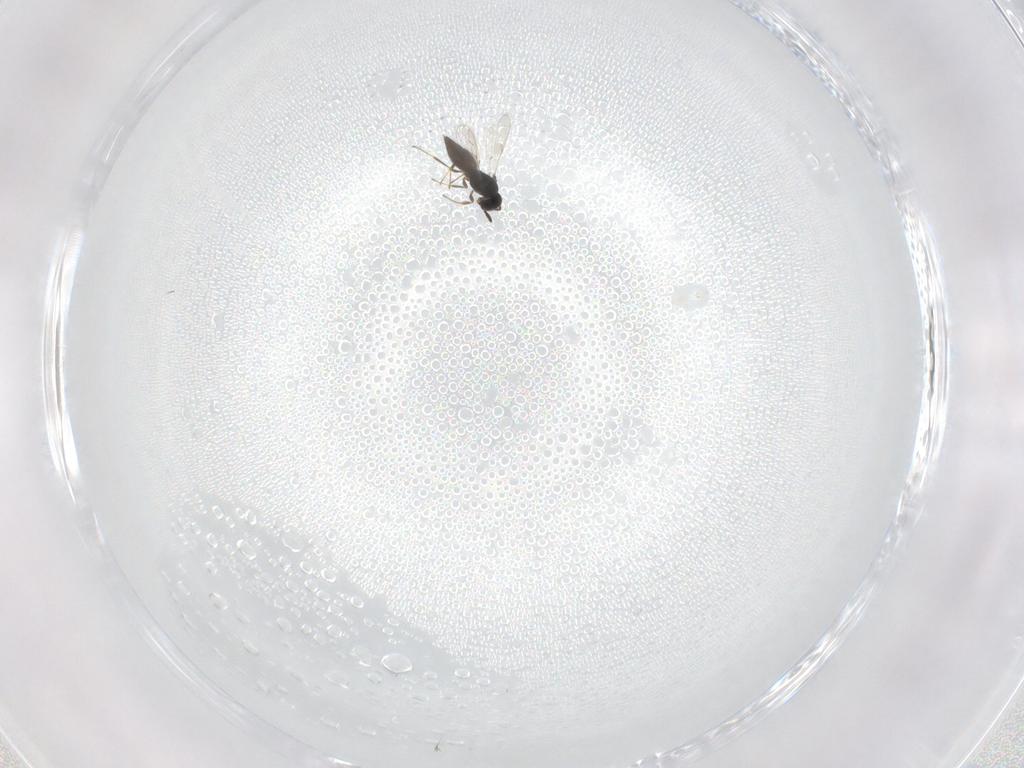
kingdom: Animalia
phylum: Arthropoda
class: Insecta
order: Hymenoptera
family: Scelionidae
